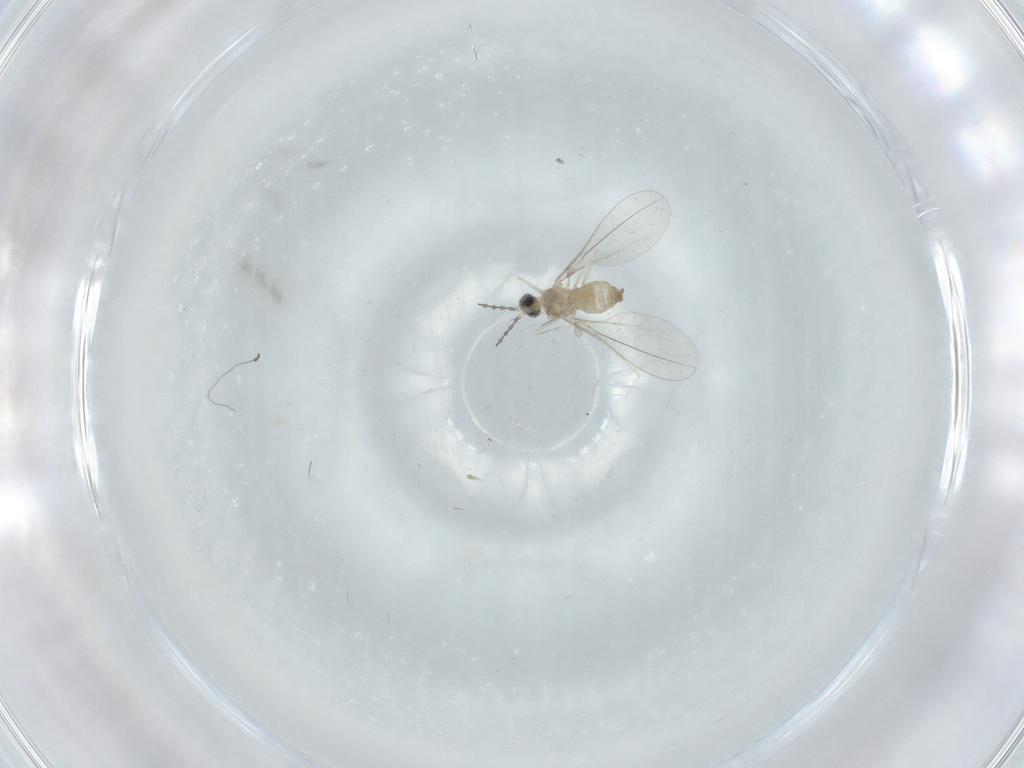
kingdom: Animalia
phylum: Arthropoda
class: Insecta
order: Diptera
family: Cecidomyiidae
